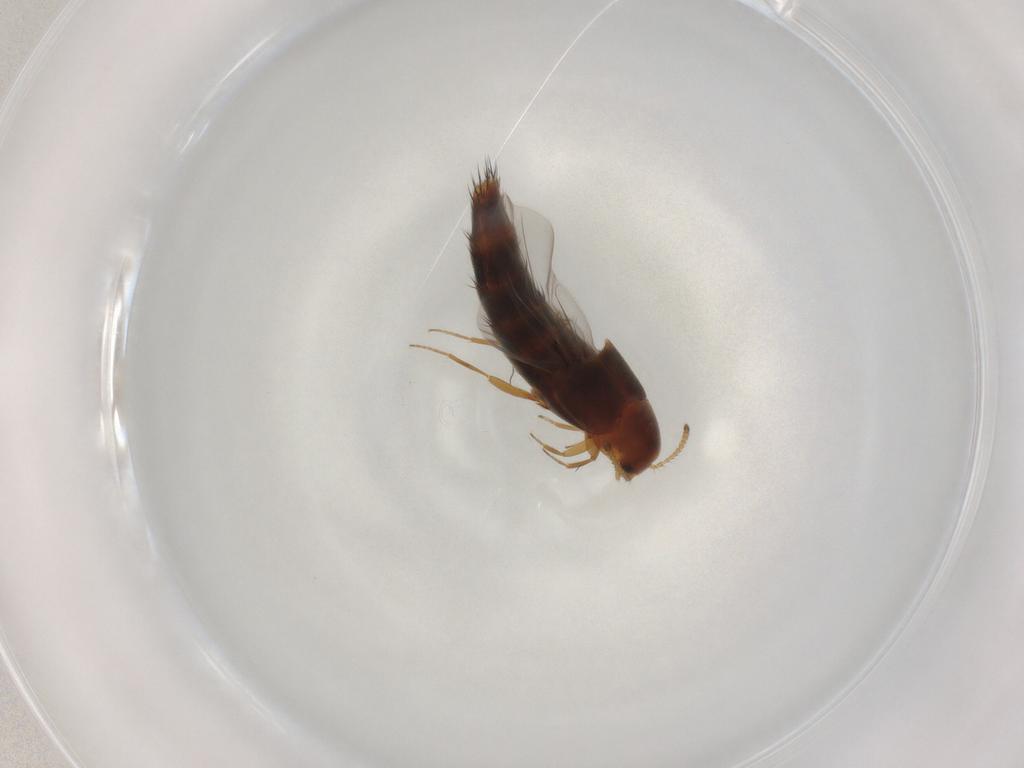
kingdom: Animalia
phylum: Arthropoda
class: Insecta
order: Coleoptera
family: Staphylinidae
